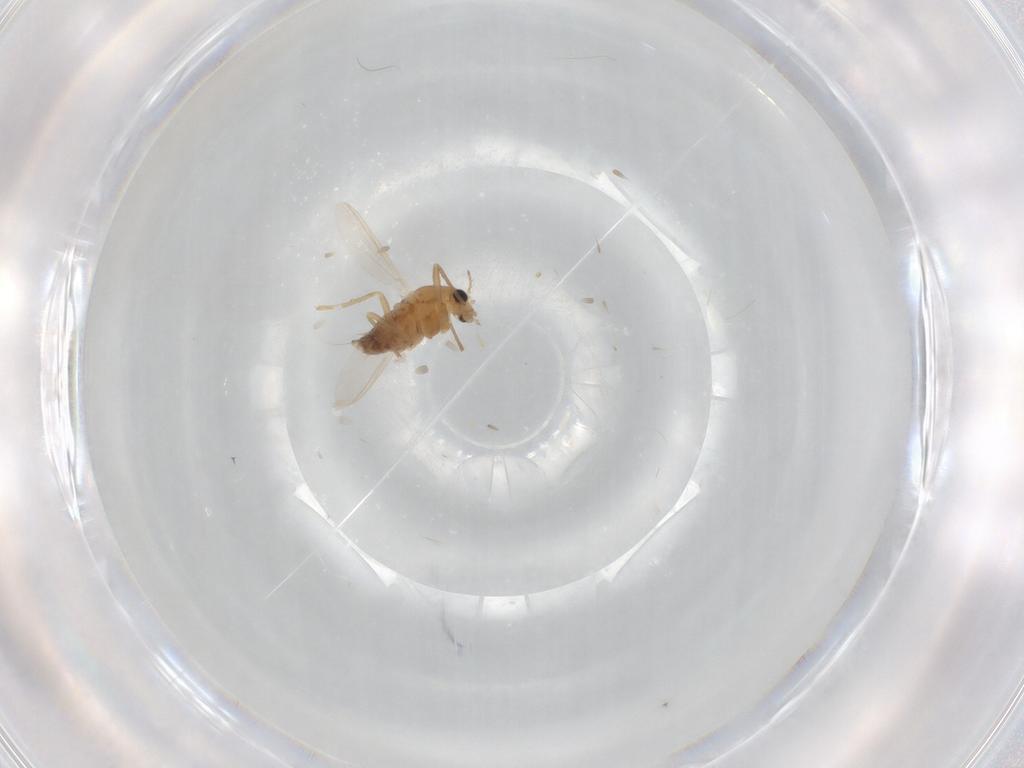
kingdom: Animalia
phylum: Arthropoda
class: Insecta
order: Diptera
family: Chironomidae
